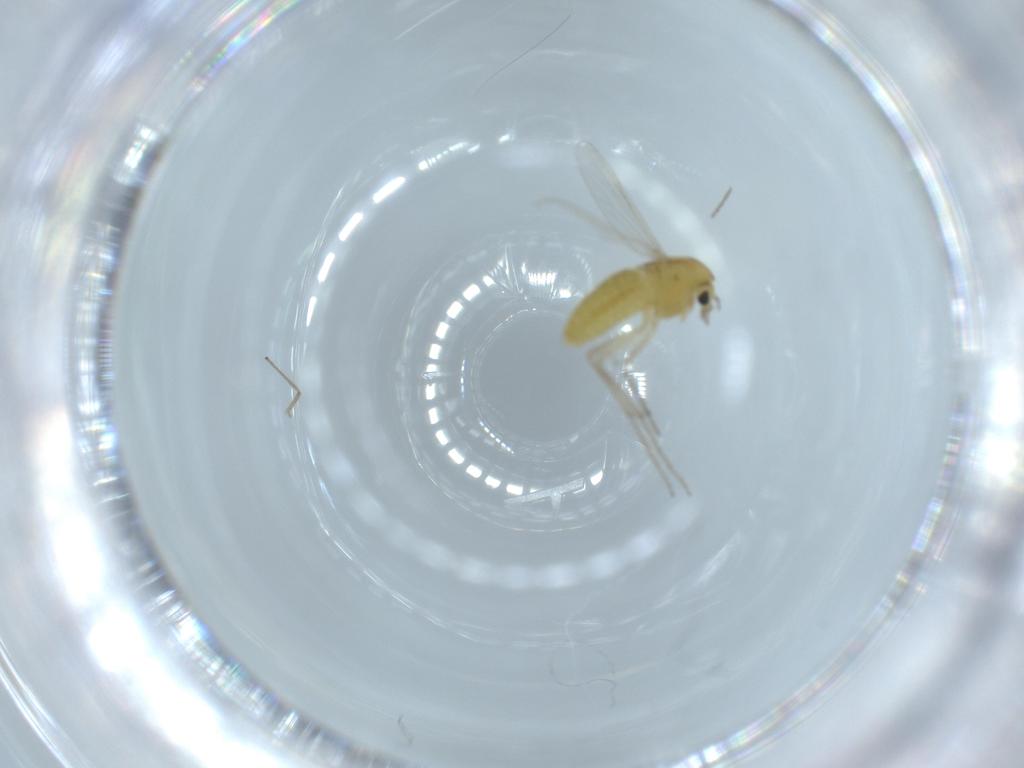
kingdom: Animalia
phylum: Arthropoda
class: Insecta
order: Diptera
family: Chironomidae
